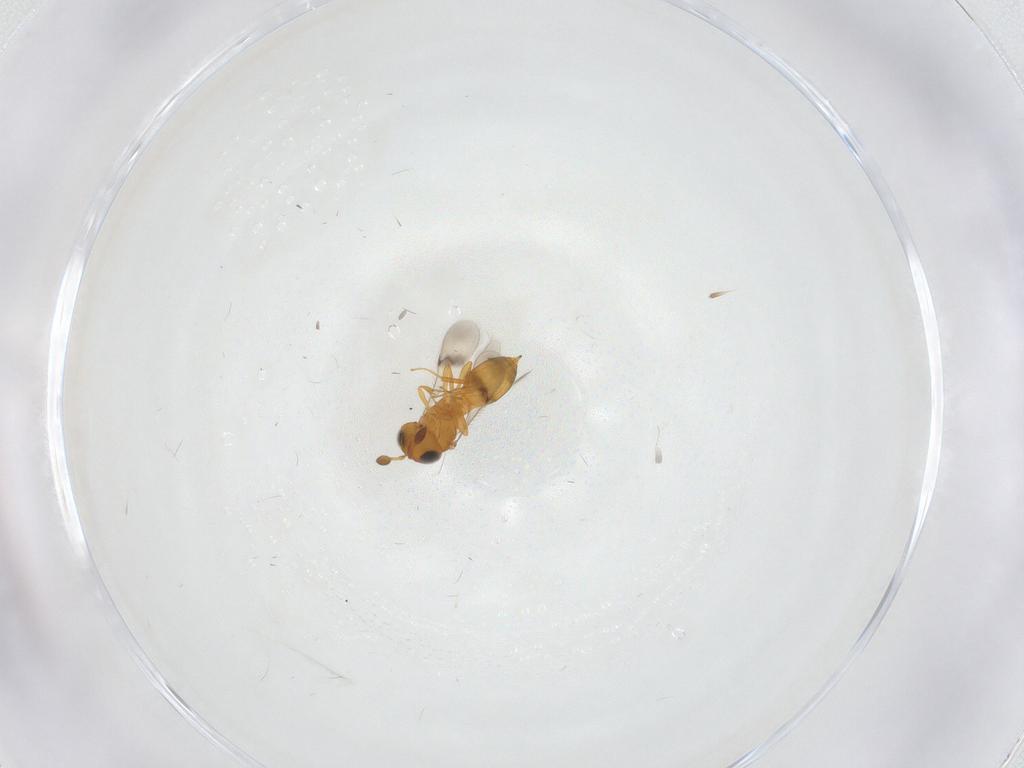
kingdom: Animalia
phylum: Arthropoda
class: Insecta
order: Hymenoptera
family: Scelionidae
